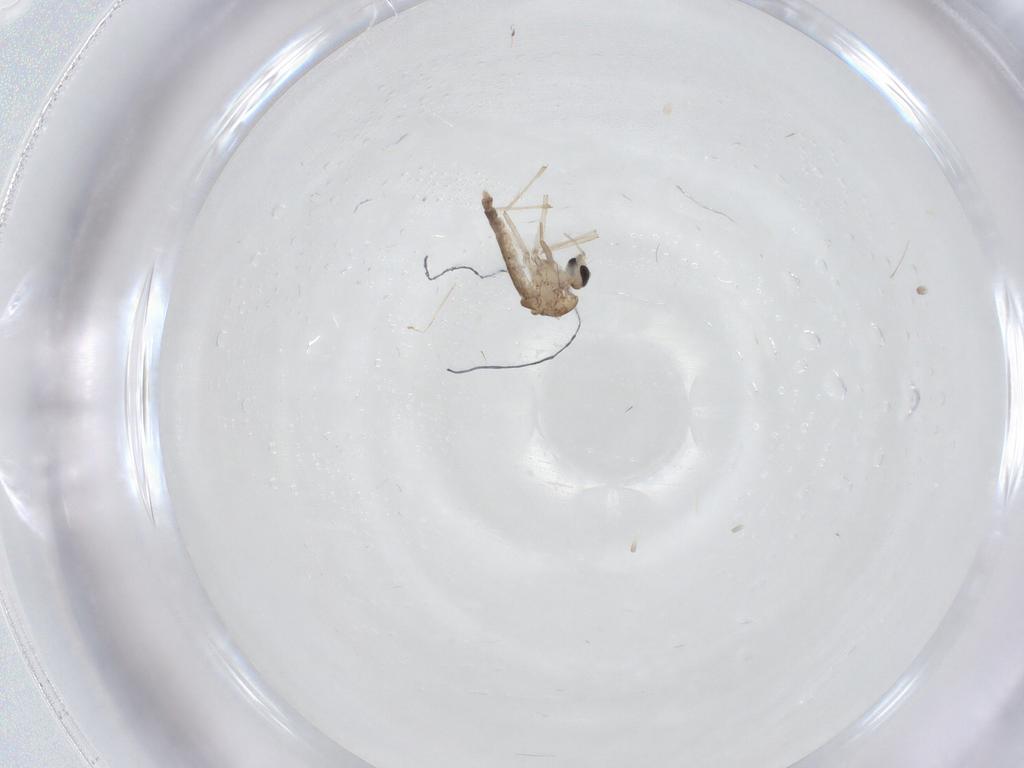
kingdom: Animalia
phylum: Arthropoda
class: Insecta
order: Diptera
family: Chironomidae
